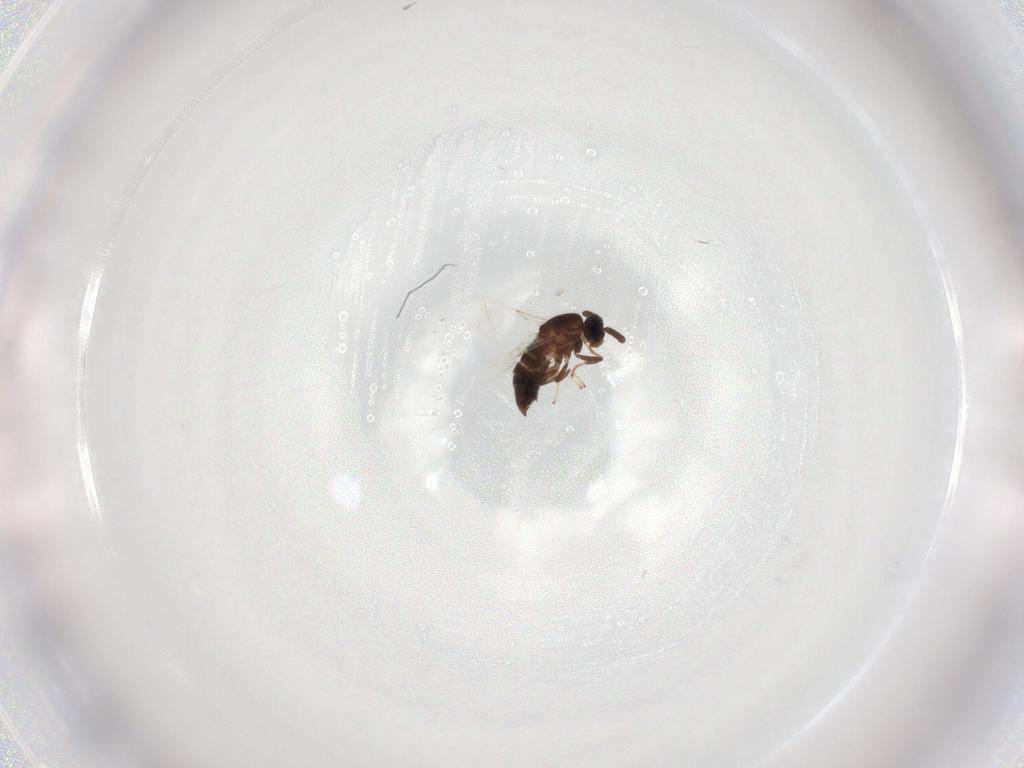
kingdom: Animalia
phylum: Arthropoda
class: Insecta
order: Diptera
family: Scatopsidae
